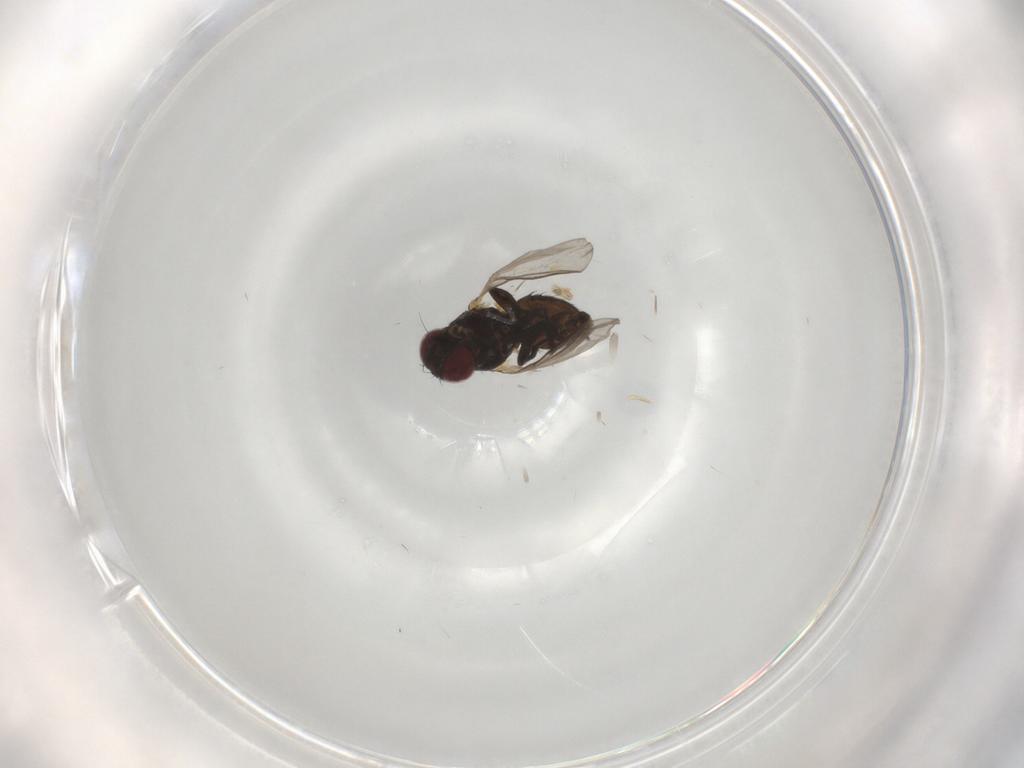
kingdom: Animalia
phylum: Arthropoda
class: Insecta
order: Diptera
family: Agromyzidae
